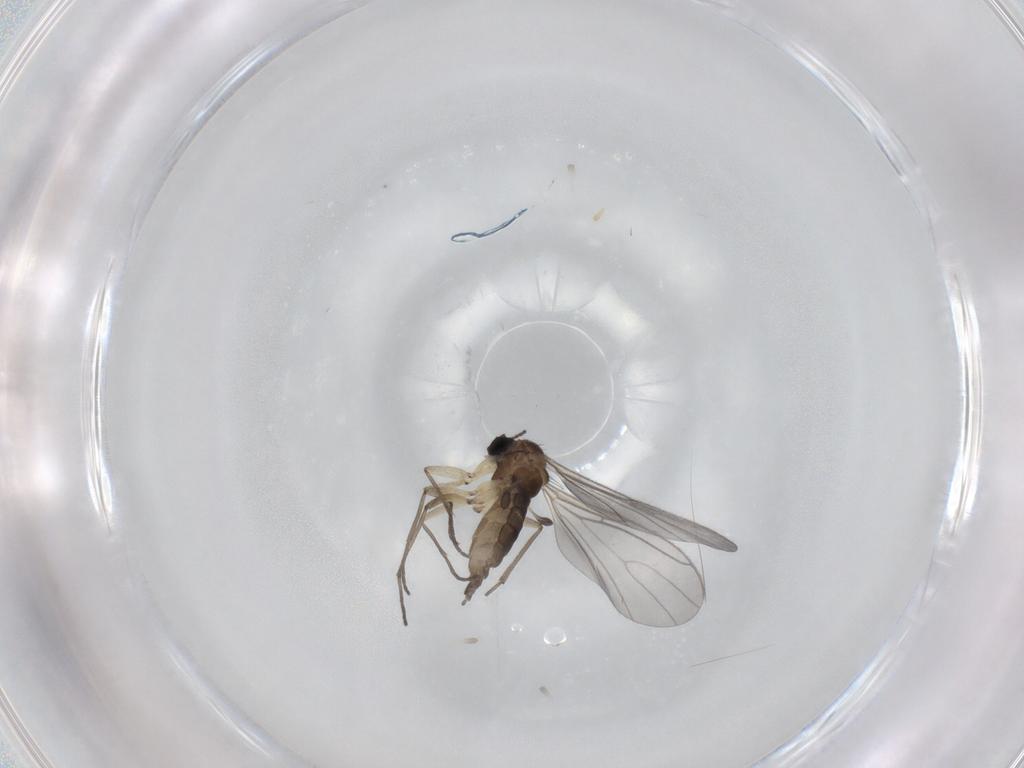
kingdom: Animalia
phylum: Arthropoda
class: Insecta
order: Diptera
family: Sciaridae
